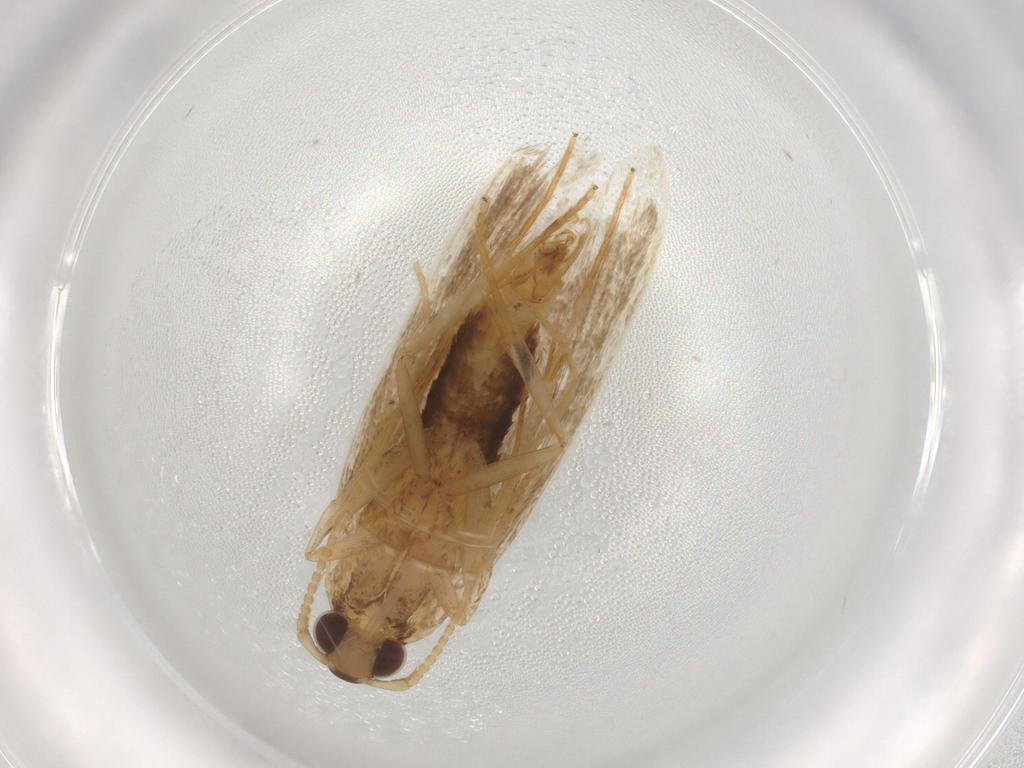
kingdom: Animalia
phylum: Arthropoda
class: Insecta
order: Lepidoptera
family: Lecithoceridae
